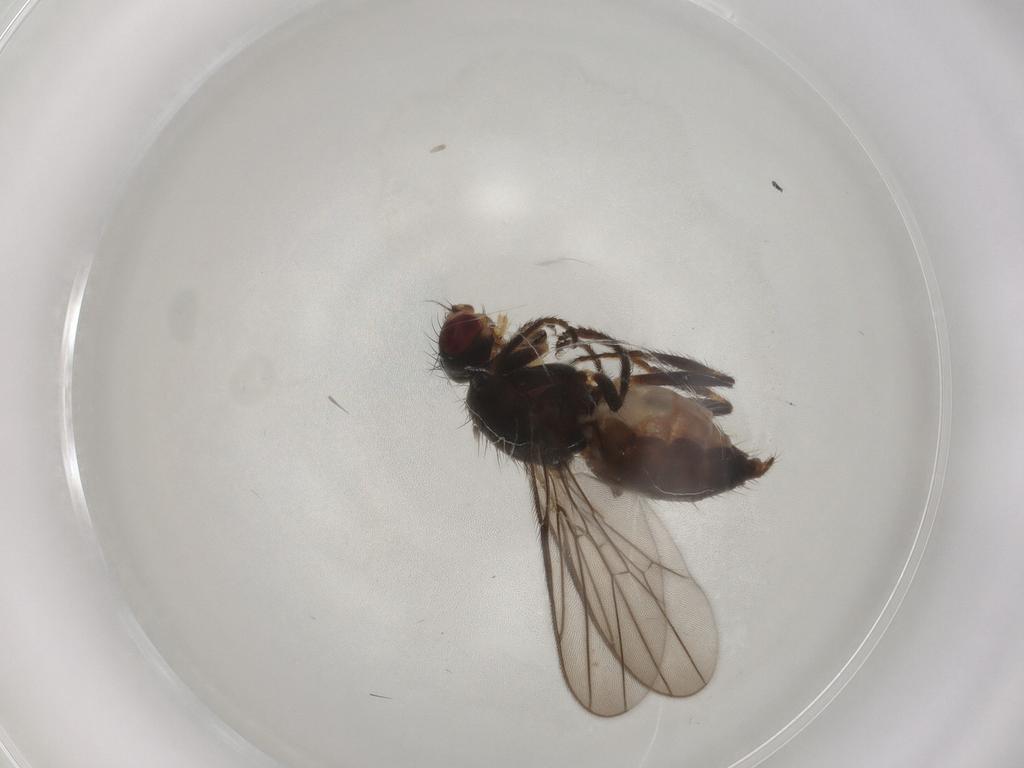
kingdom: Animalia
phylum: Arthropoda
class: Insecta
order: Diptera
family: Chloropidae
